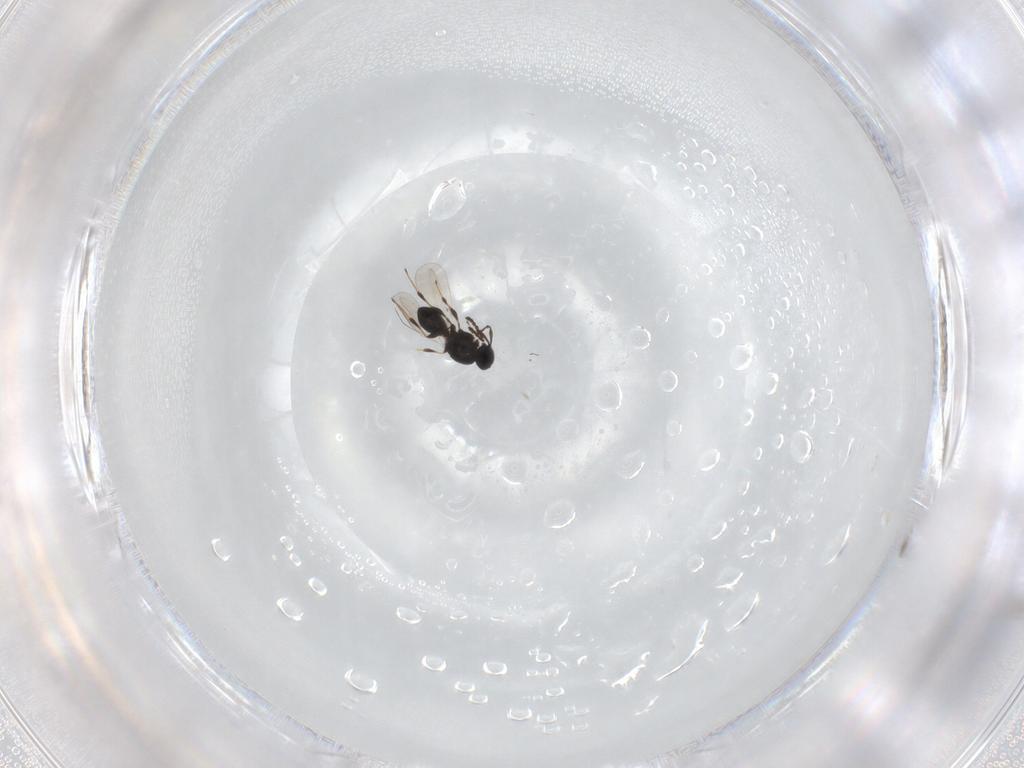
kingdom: Animalia
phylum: Arthropoda
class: Insecta
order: Hymenoptera
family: Platygastridae
